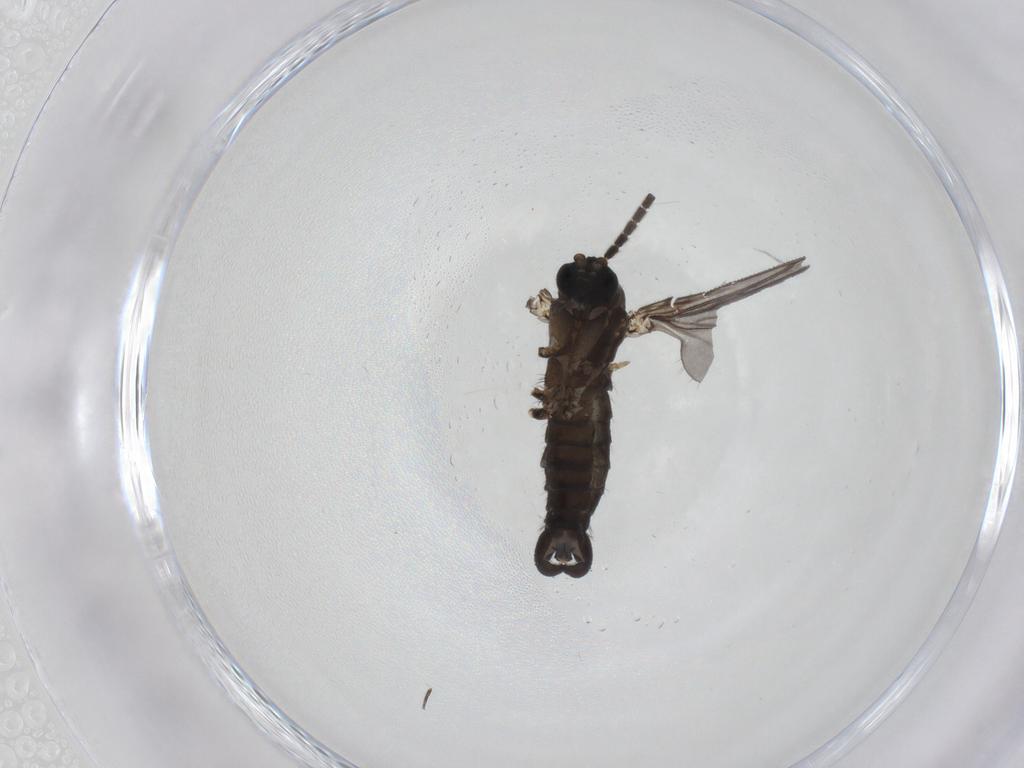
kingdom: Animalia
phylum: Arthropoda
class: Insecta
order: Diptera
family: Sciaridae
